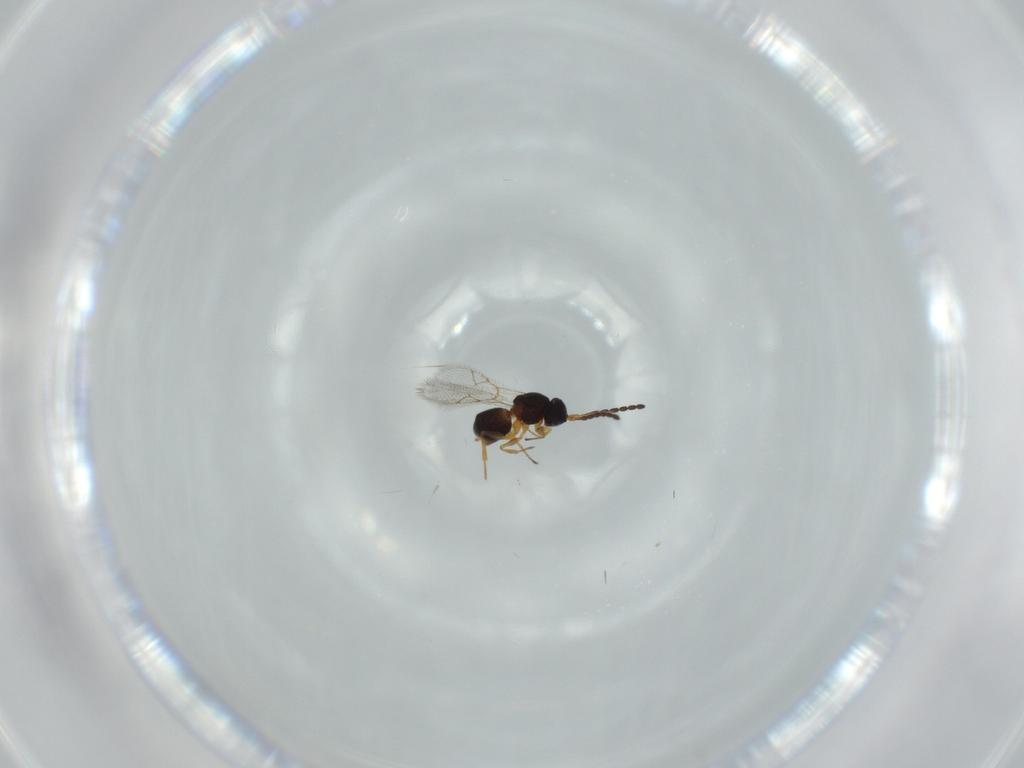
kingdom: Animalia
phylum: Arthropoda
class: Insecta
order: Hymenoptera
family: Figitidae
